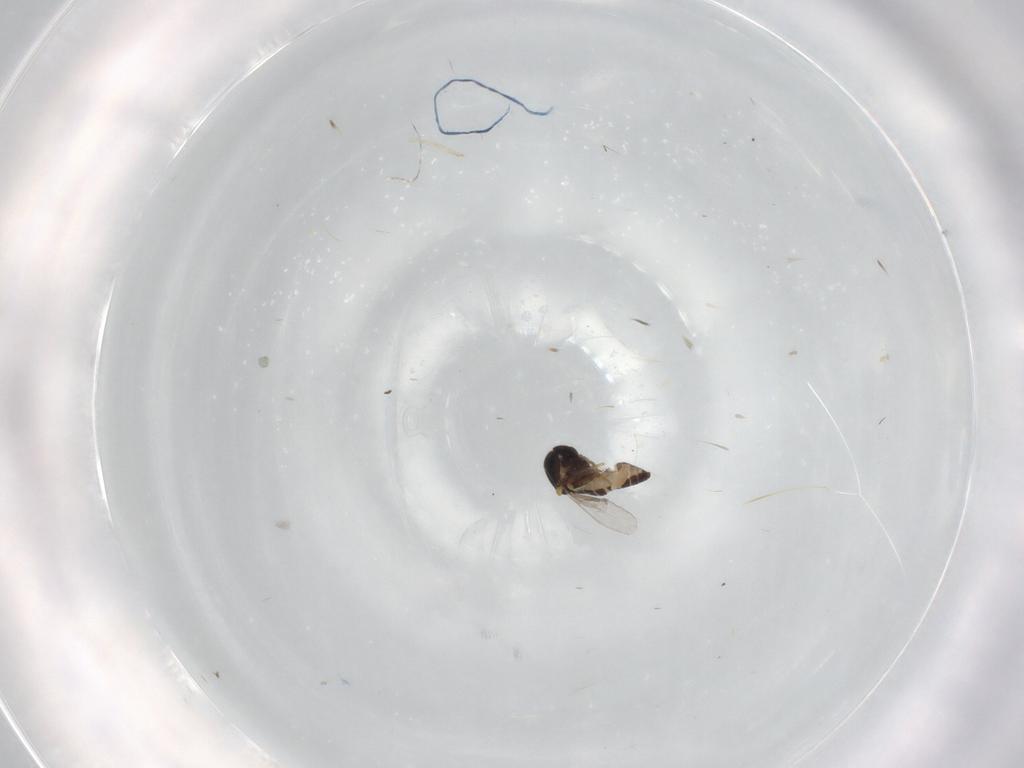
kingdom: Animalia
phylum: Arthropoda
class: Insecta
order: Diptera
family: Ceratopogonidae
